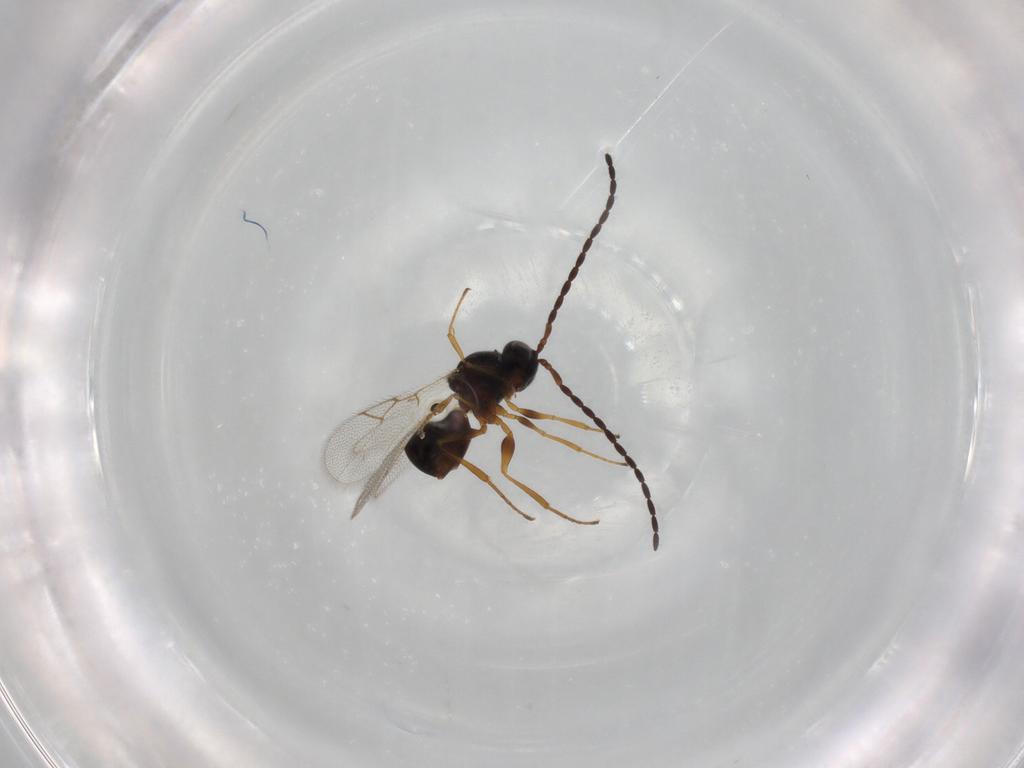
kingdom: Animalia
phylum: Arthropoda
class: Insecta
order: Hymenoptera
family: Figitidae
